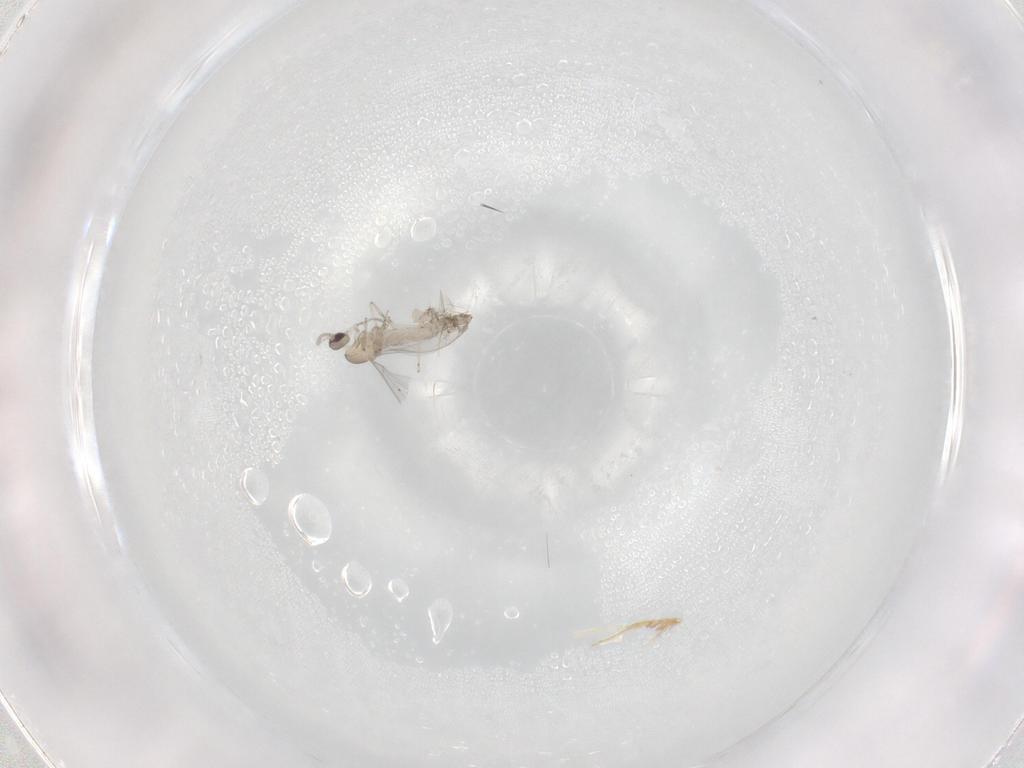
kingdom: Animalia
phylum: Arthropoda
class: Insecta
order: Diptera
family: Cecidomyiidae
